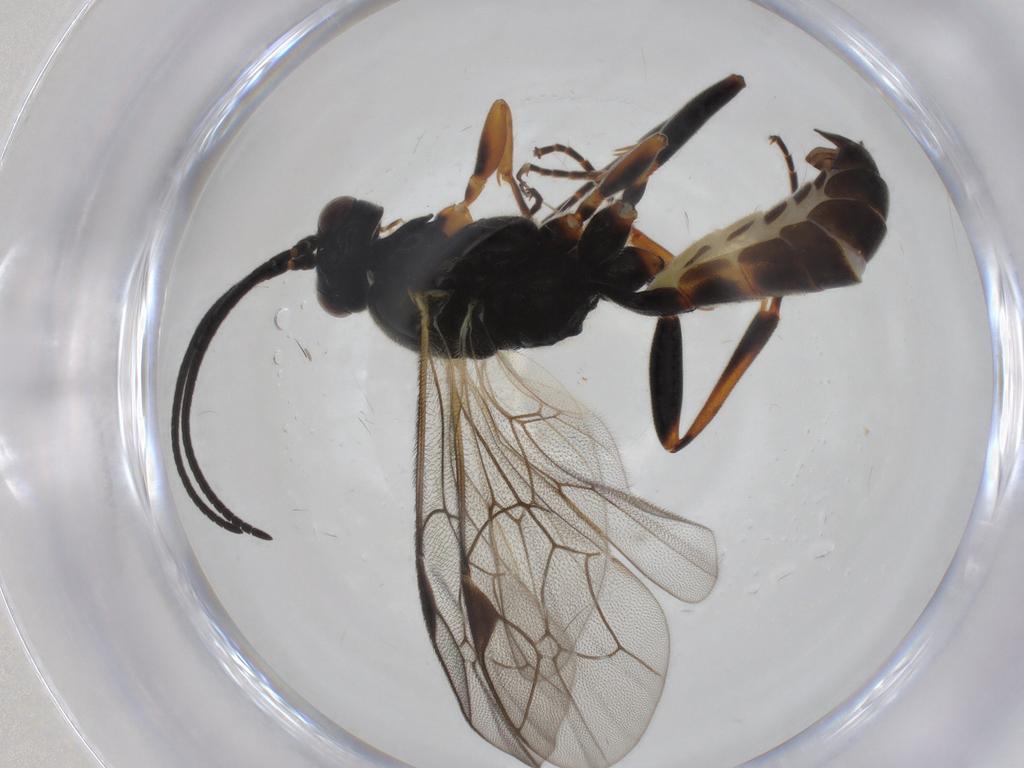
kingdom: Animalia
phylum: Arthropoda
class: Insecta
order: Hymenoptera
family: Ichneumonidae
